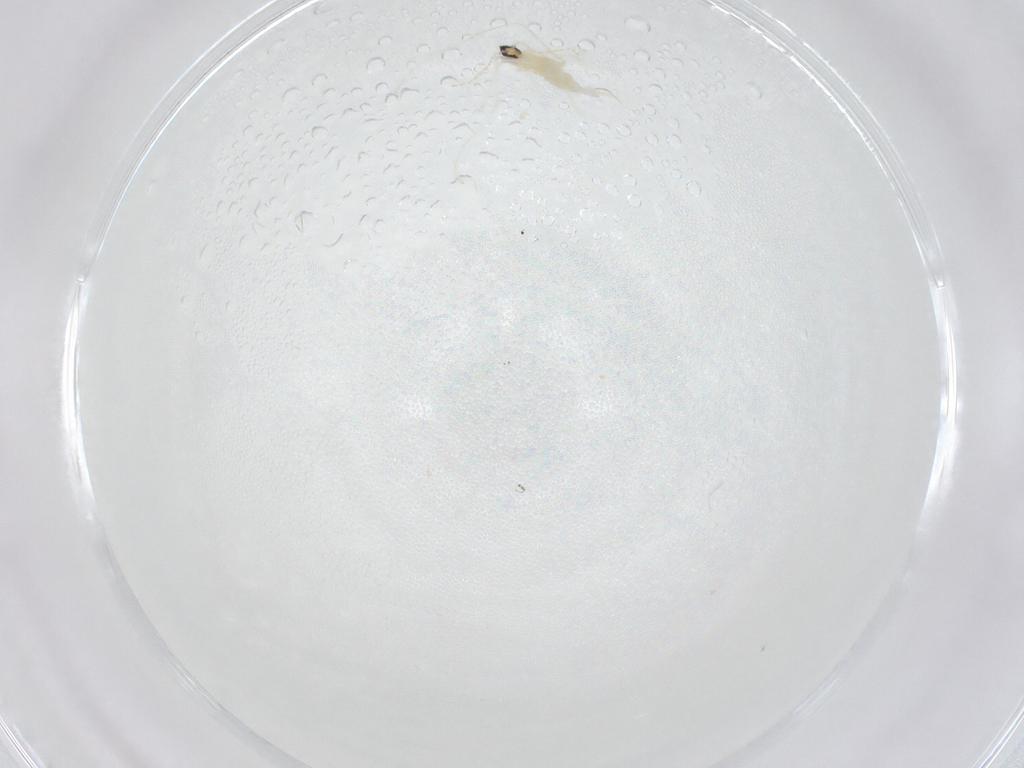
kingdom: Animalia
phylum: Arthropoda
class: Insecta
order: Diptera
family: Cecidomyiidae
